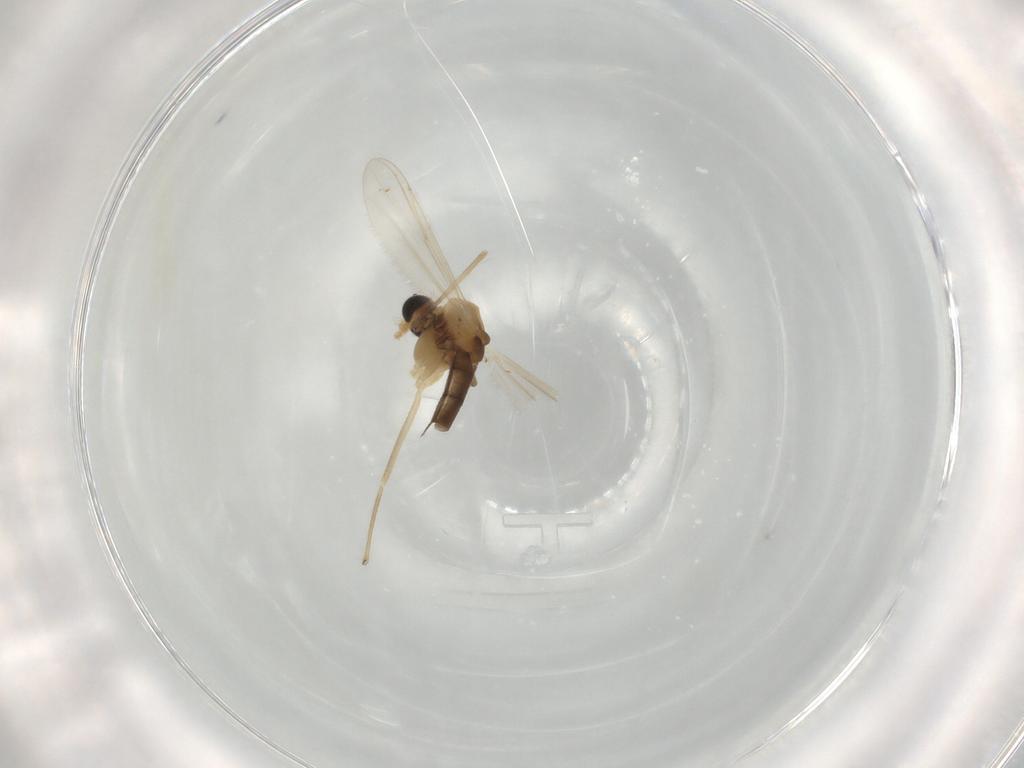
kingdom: Animalia
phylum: Arthropoda
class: Insecta
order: Diptera
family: Chironomidae
